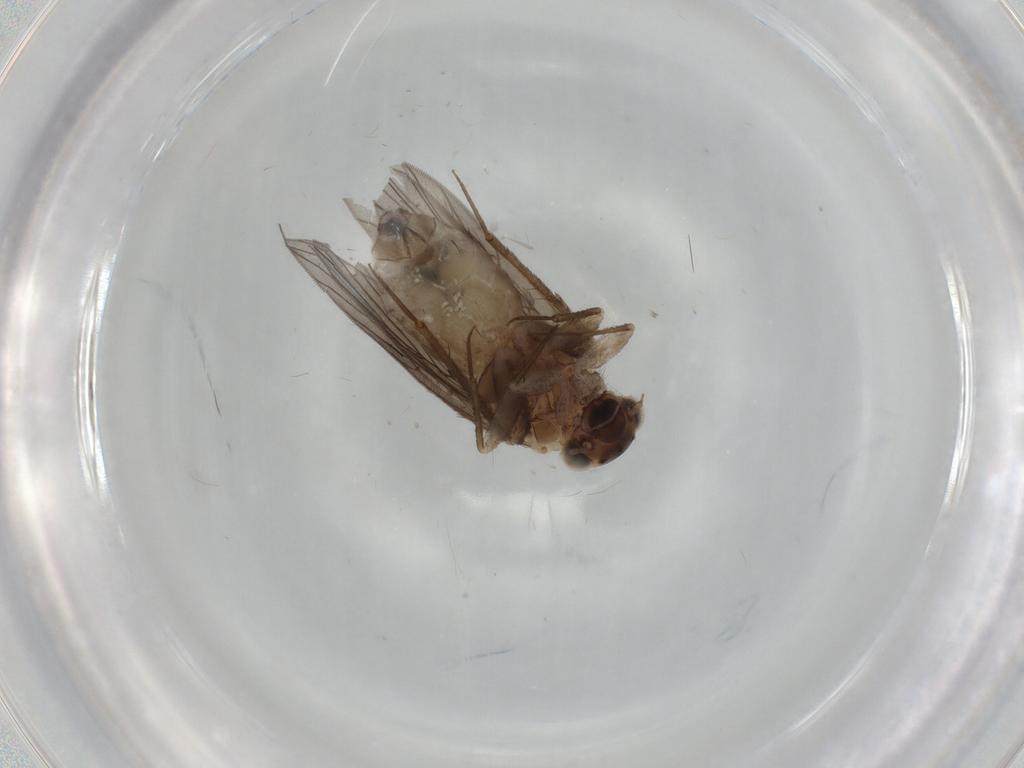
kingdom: Animalia
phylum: Arthropoda
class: Insecta
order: Psocodea
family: Lepidopsocidae
